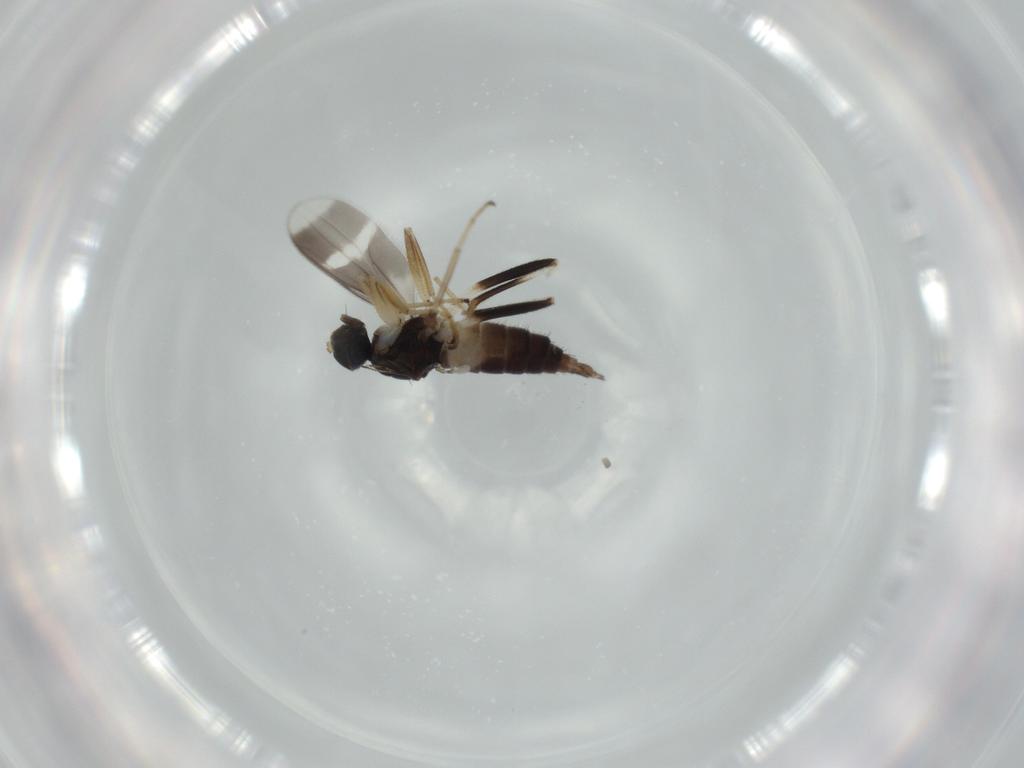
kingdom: Animalia
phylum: Arthropoda
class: Insecta
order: Diptera
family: Hybotidae
